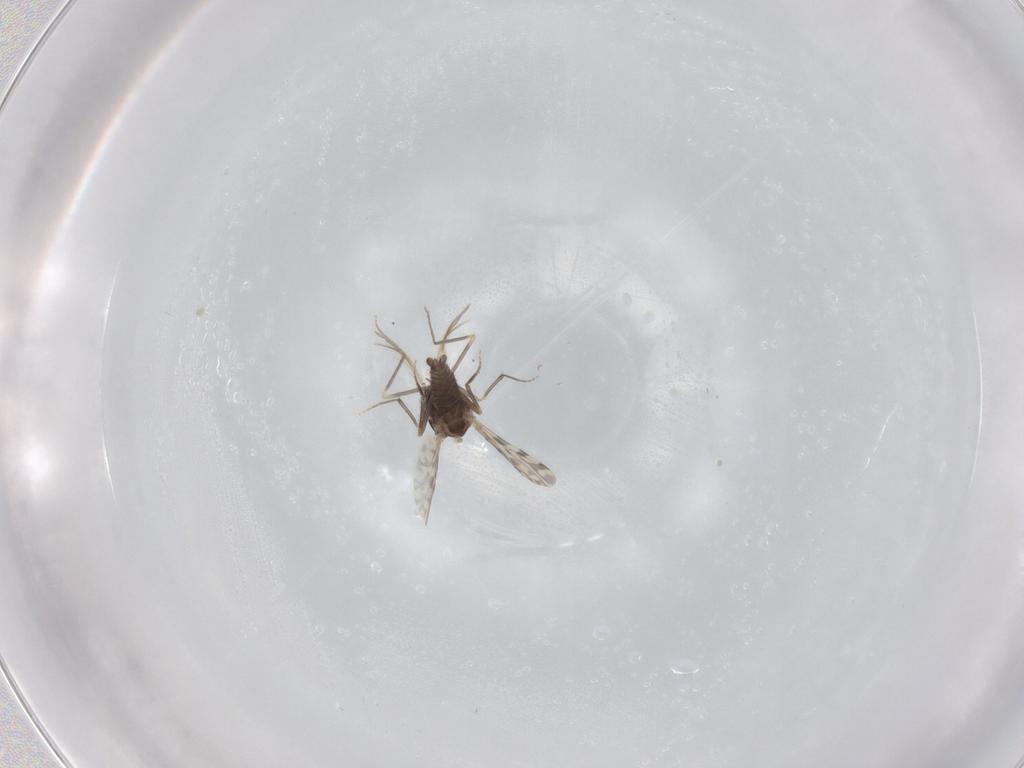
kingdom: Animalia
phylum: Arthropoda
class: Insecta
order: Diptera
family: Ceratopogonidae
